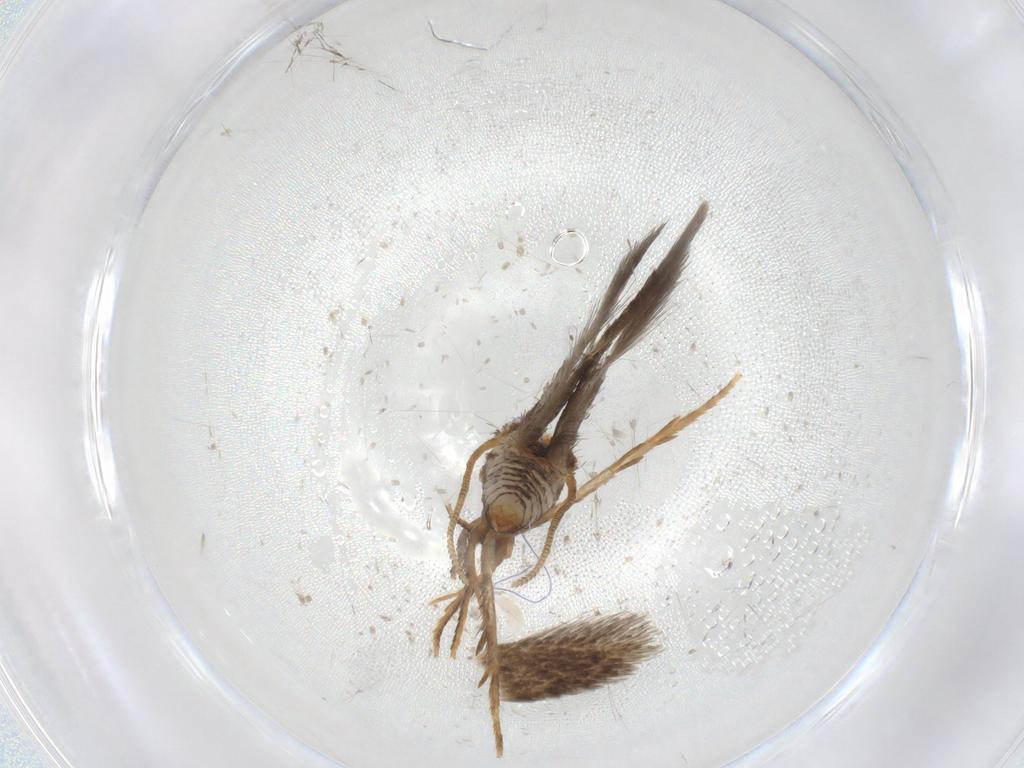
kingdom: Animalia
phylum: Arthropoda
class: Insecta
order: Lepidoptera
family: Nepticulidae
